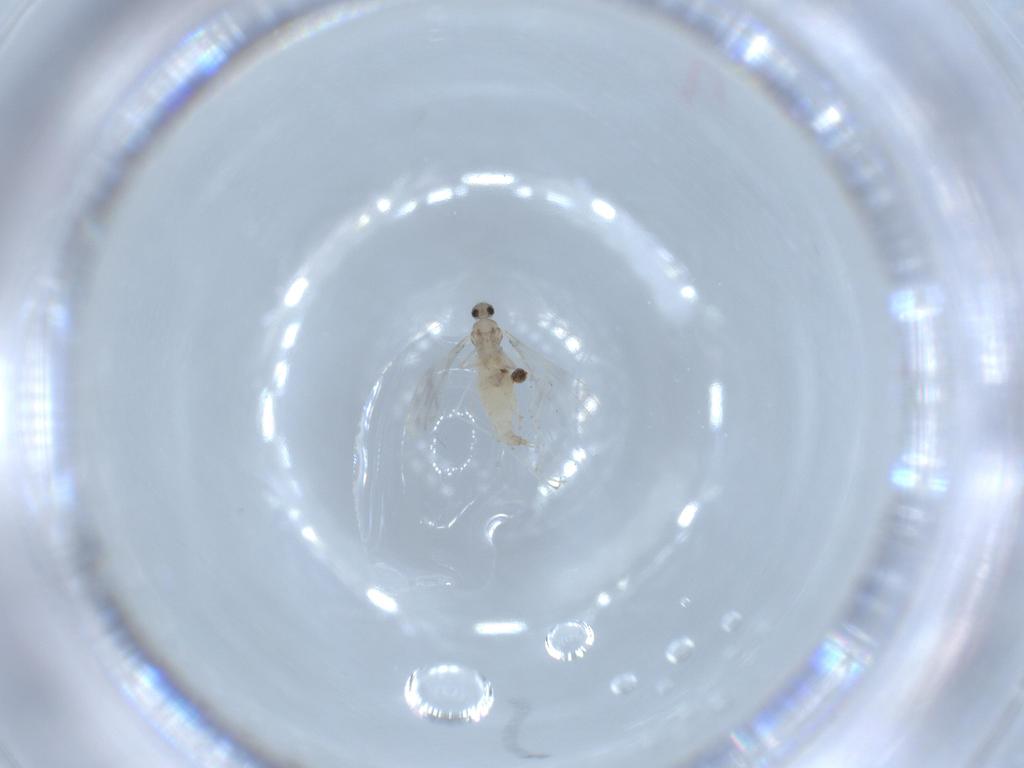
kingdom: Animalia
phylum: Arthropoda
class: Insecta
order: Diptera
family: Cecidomyiidae
